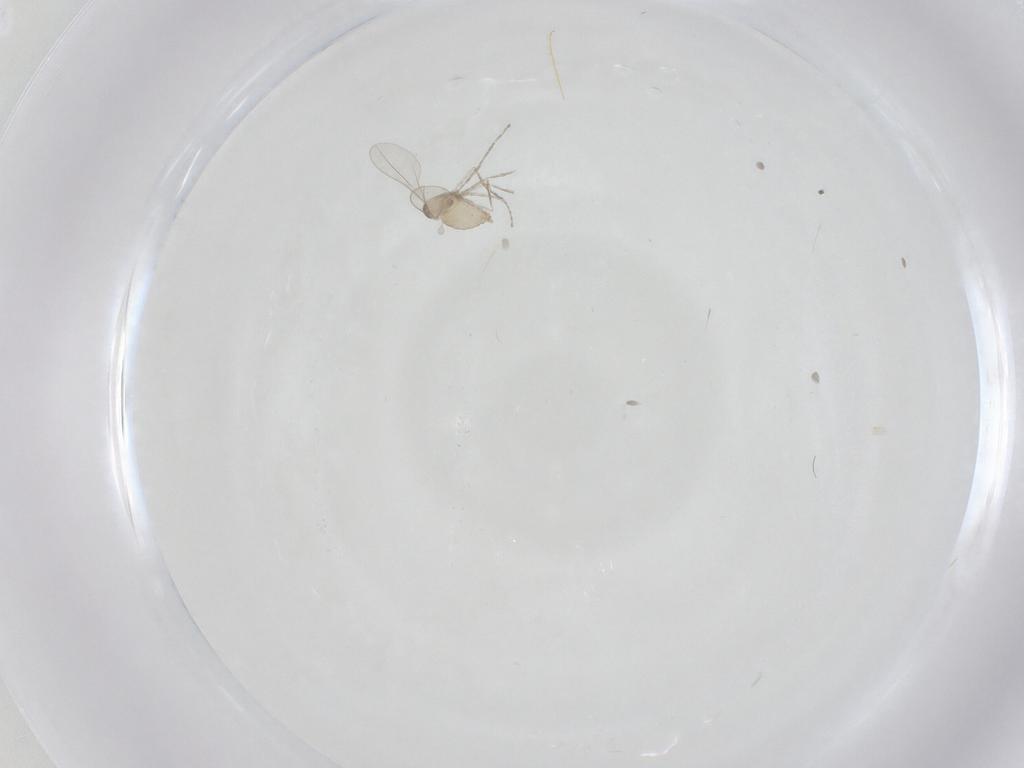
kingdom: Animalia
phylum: Arthropoda
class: Insecta
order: Diptera
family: Cecidomyiidae
